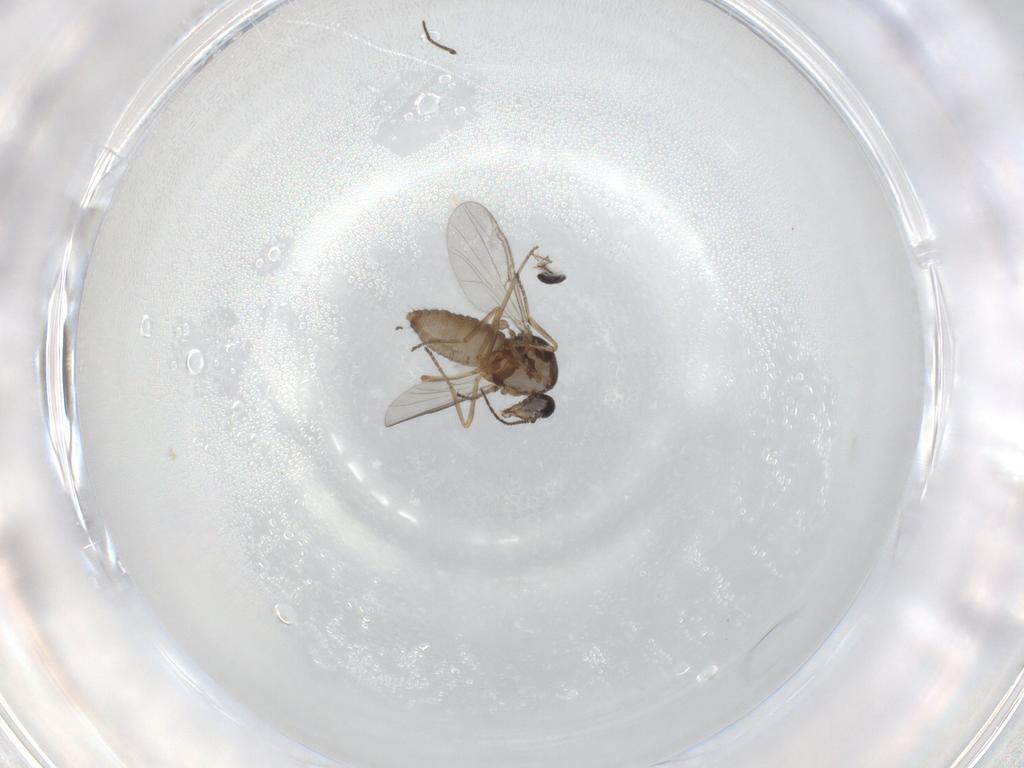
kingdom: Animalia
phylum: Arthropoda
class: Insecta
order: Diptera
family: Ceratopogonidae
